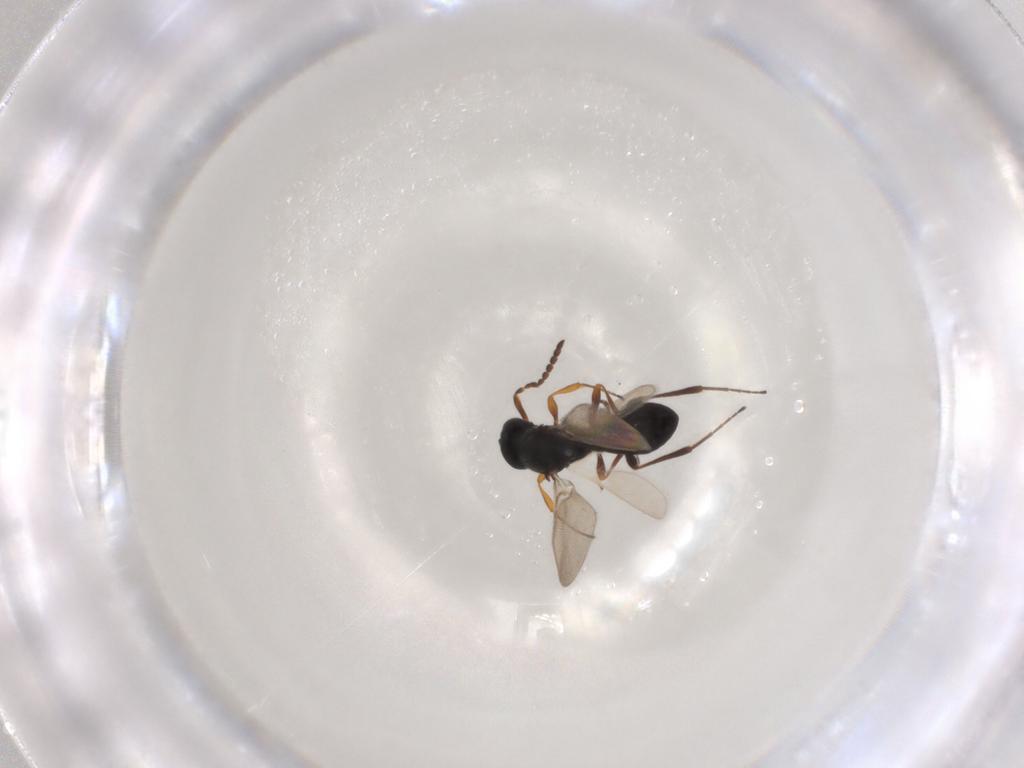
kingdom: Animalia
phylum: Arthropoda
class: Insecta
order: Hymenoptera
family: Platygastridae
